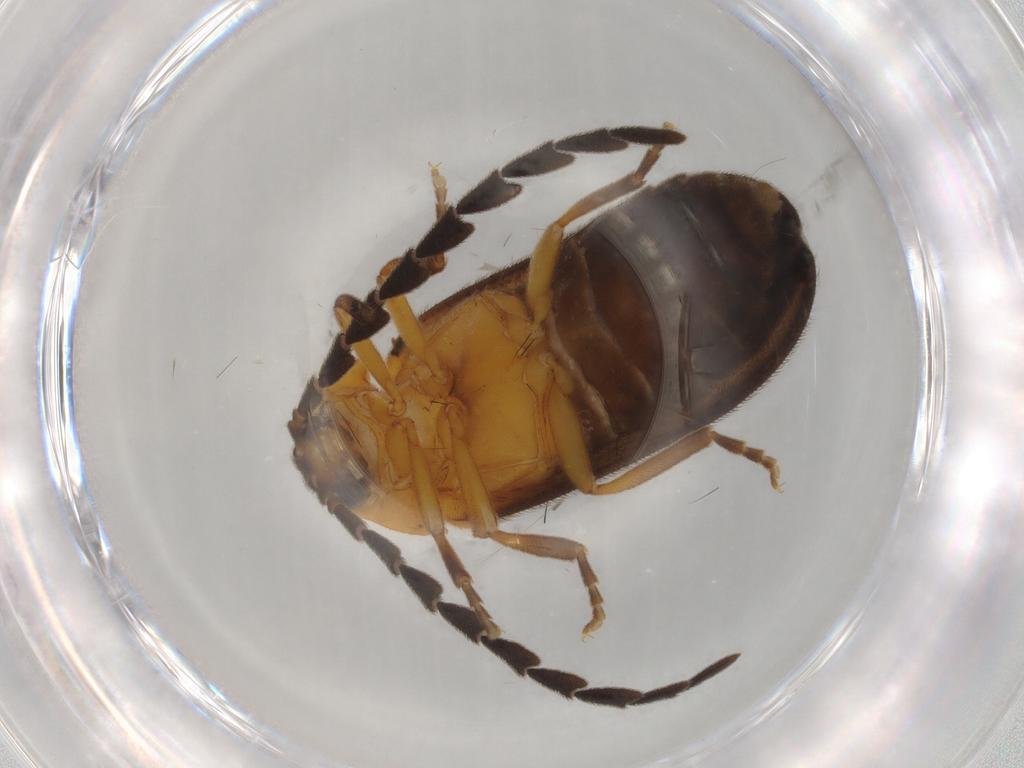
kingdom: Animalia
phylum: Arthropoda
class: Insecta
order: Coleoptera
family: Lampyridae
